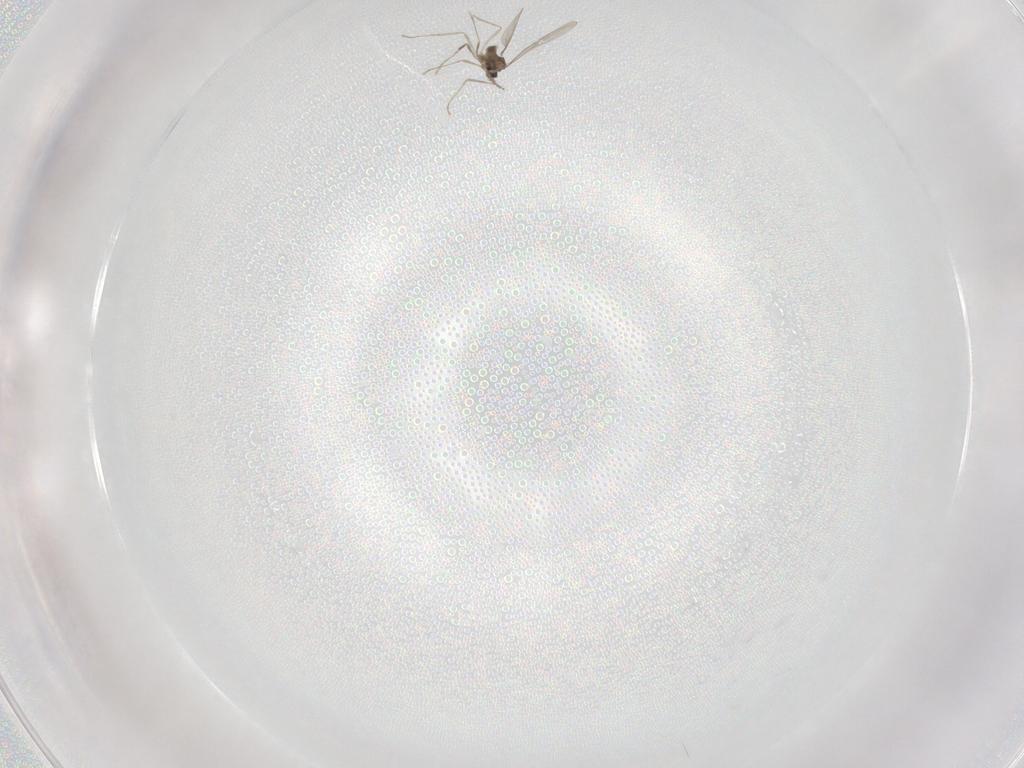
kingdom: Animalia
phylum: Arthropoda
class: Insecta
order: Diptera
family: Cecidomyiidae
